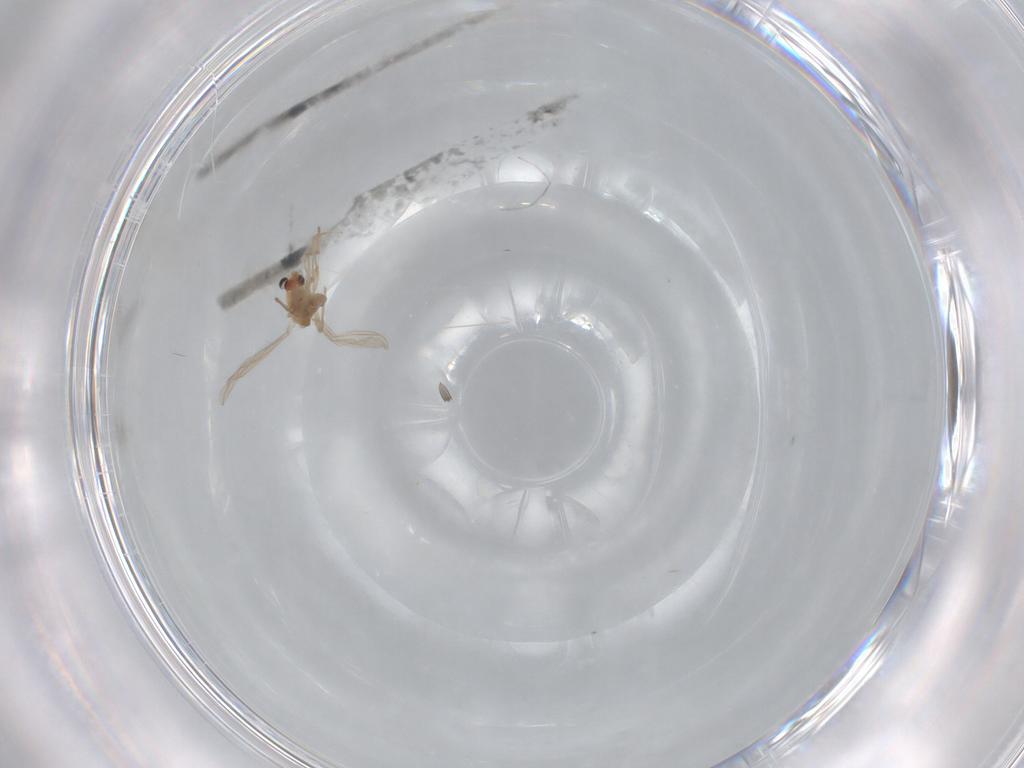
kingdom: Animalia
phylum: Arthropoda
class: Insecta
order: Diptera
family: Chironomidae
